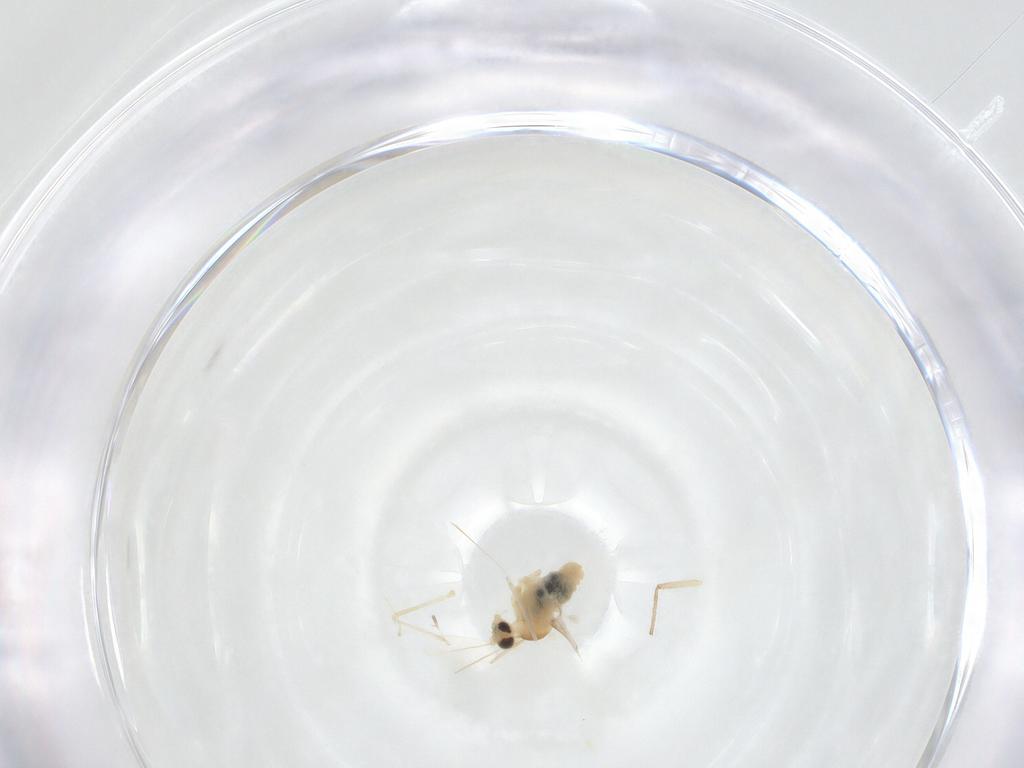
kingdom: Animalia
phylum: Arthropoda
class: Insecta
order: Diptera
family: Cecidomyiidae
